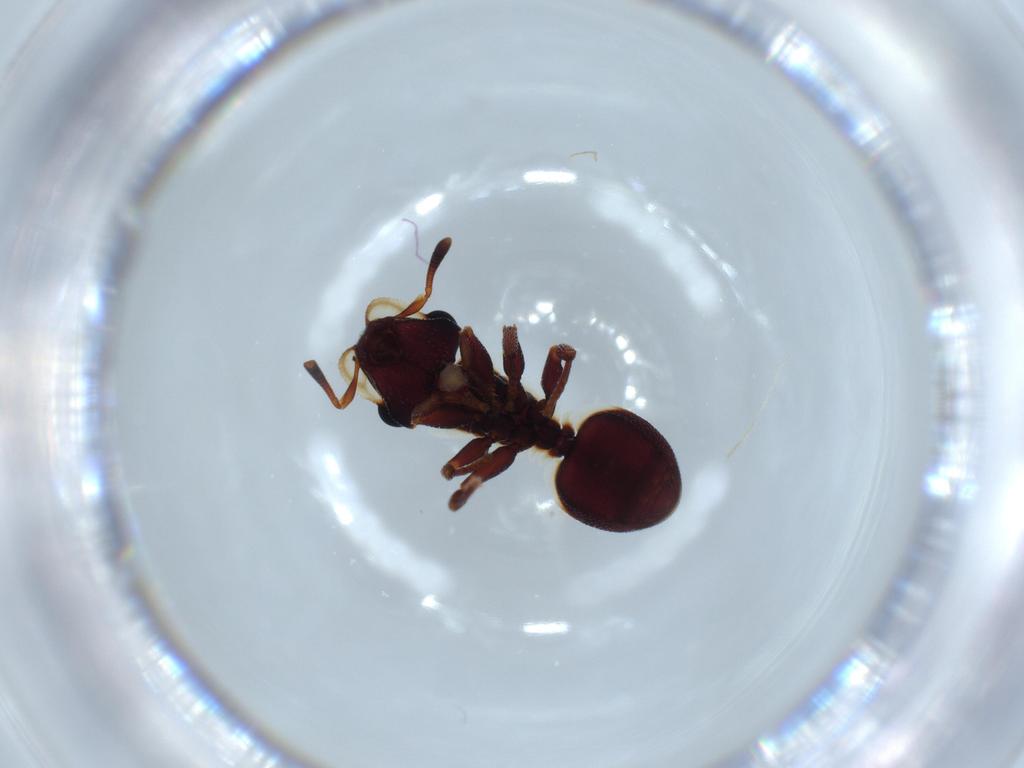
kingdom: Animalia
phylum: Arthropoda
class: Insecta
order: Hymenoptera
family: Formicidae
